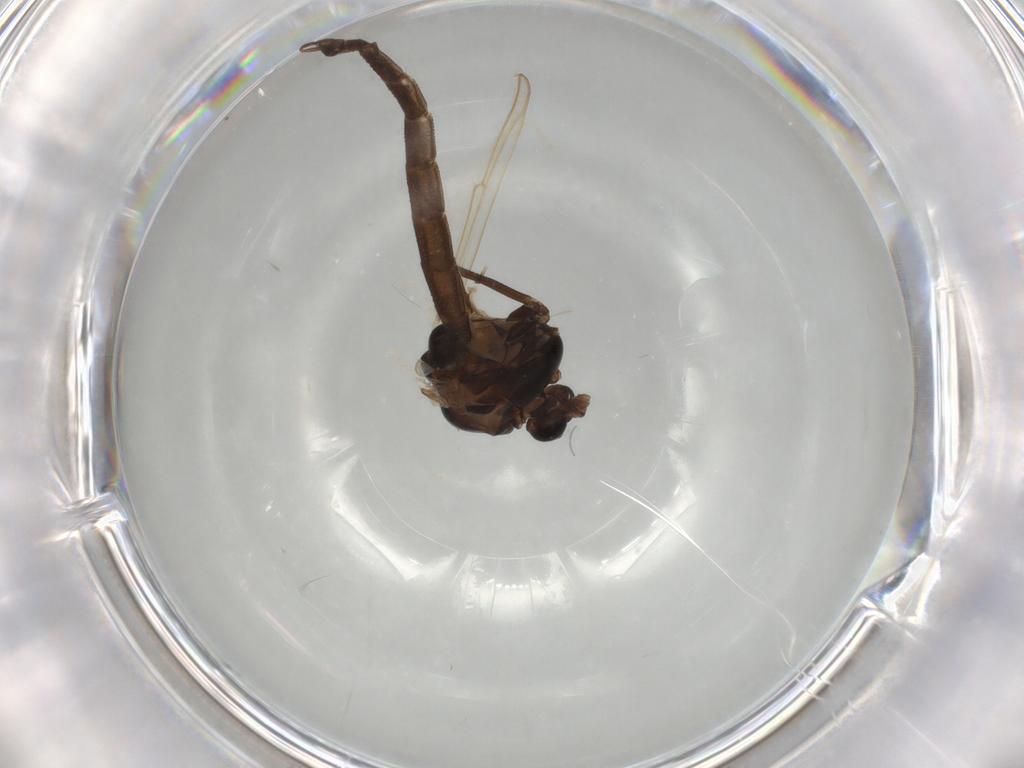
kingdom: Animalia
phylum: Arthropoda
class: Insecta
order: Diptera
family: Chironomidae
